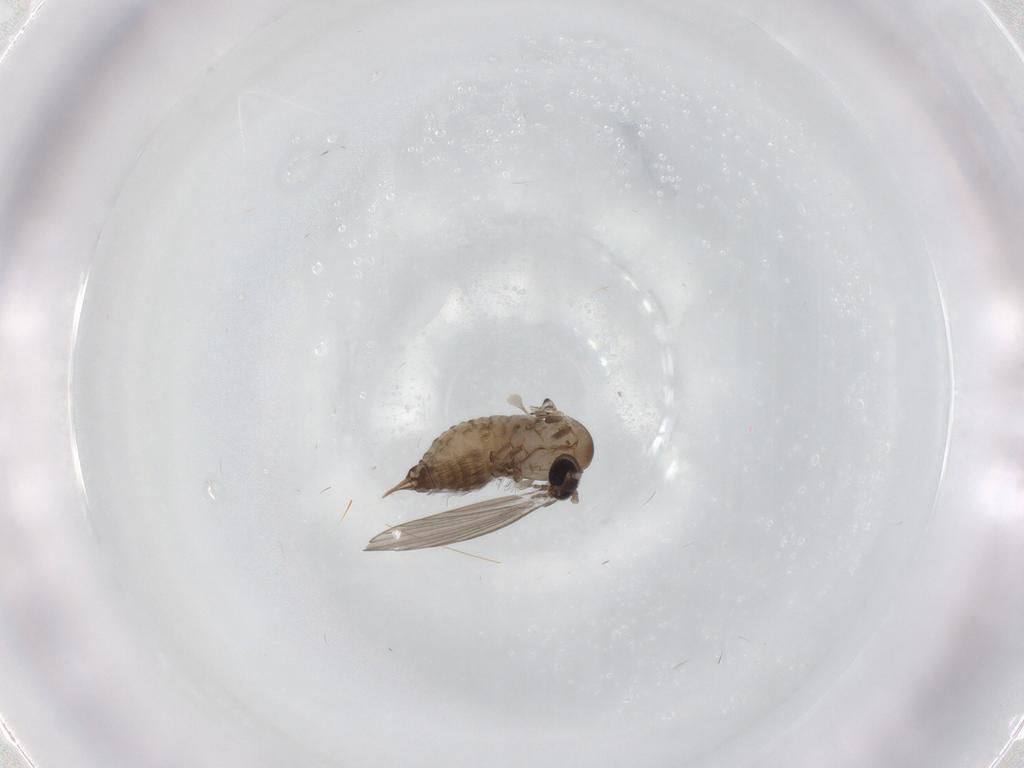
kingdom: Animalia
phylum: Arthropoda
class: Insecta
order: Diptera
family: Psychodidae
